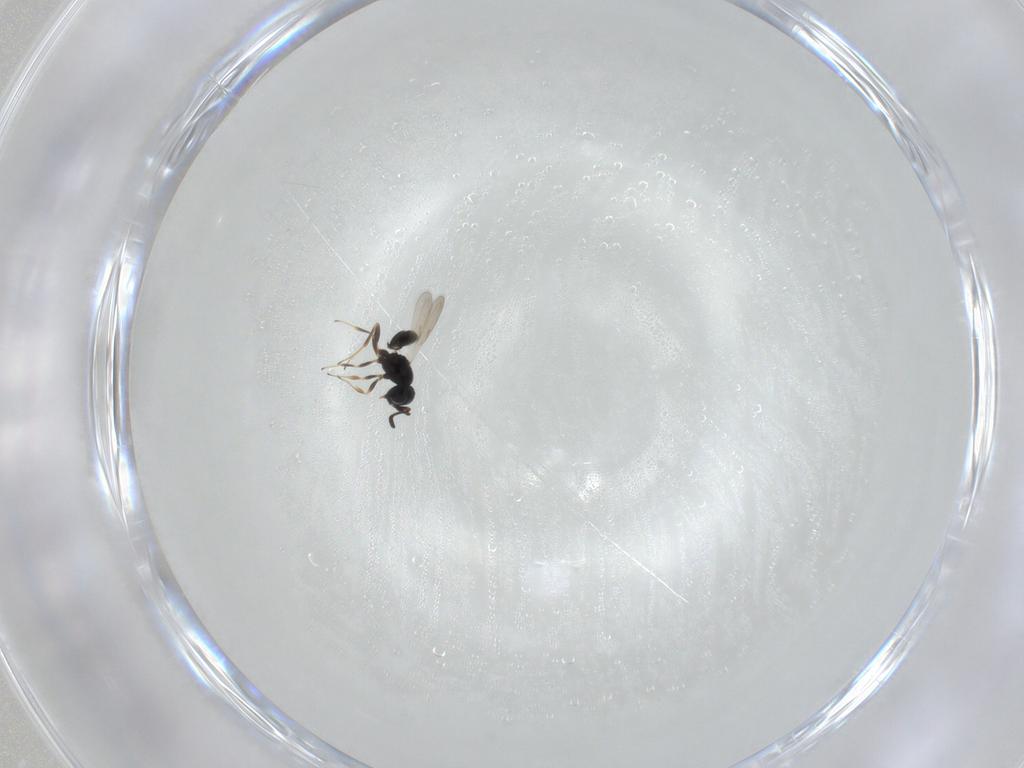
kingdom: Animalia
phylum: Arthropoda
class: Insecta
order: Hymenoptera
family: Scelionidae
